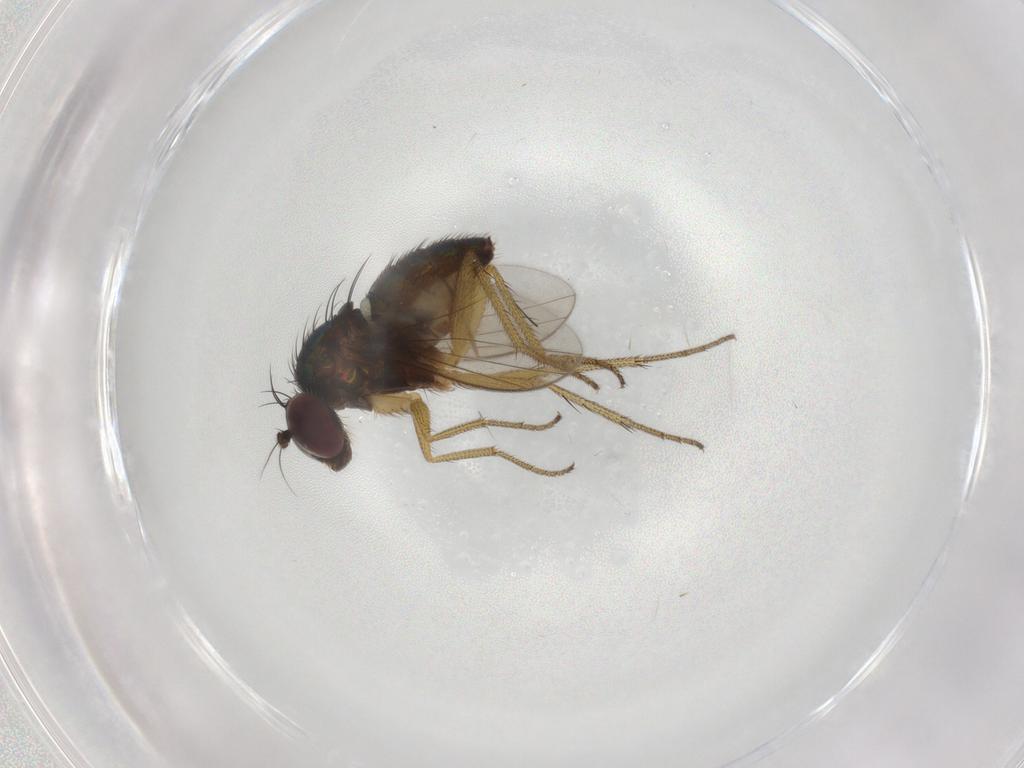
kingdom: Animalia
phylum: Arthropoda
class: Insecta
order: Diptera
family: Dolichopodidae
